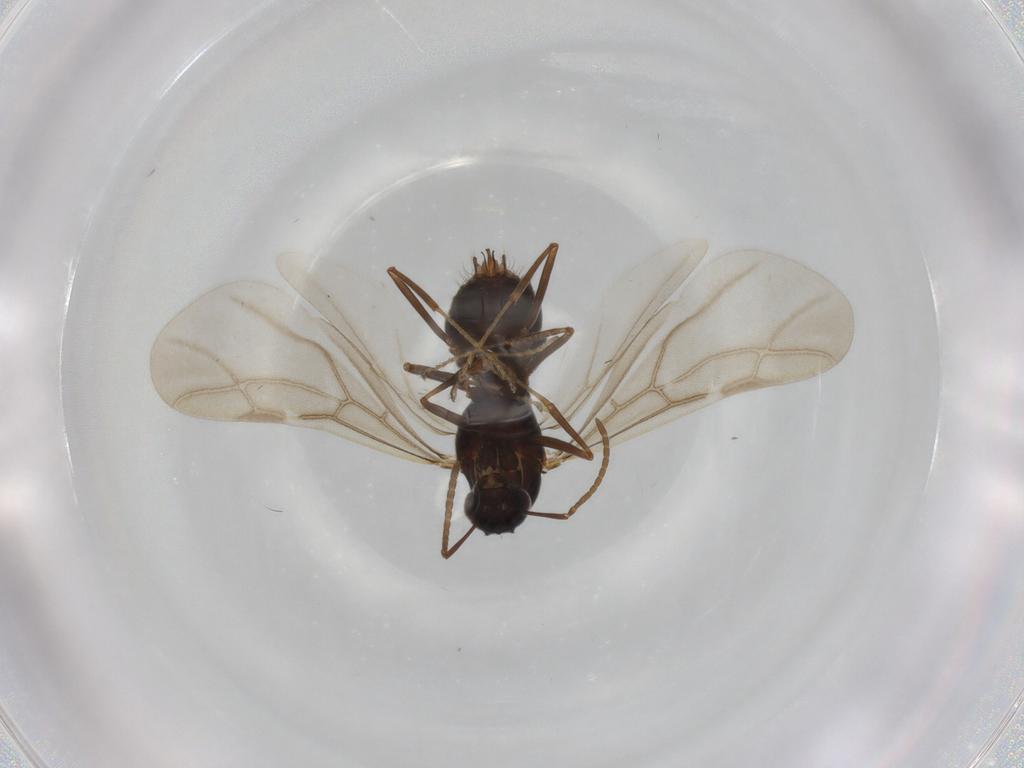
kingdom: Animalia
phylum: Arthropoda
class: Insecta
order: Hymenoptera
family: Formicidae
